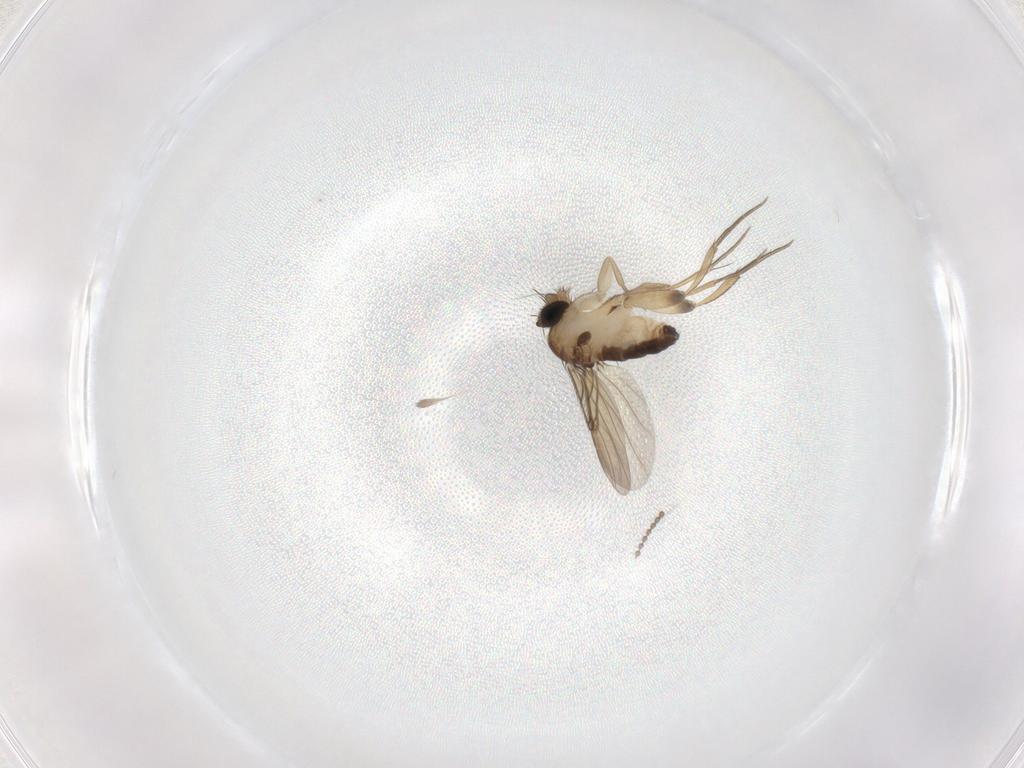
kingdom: Animalia
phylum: Arthropoda
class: Insecta
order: Diptera
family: Sciaridae
